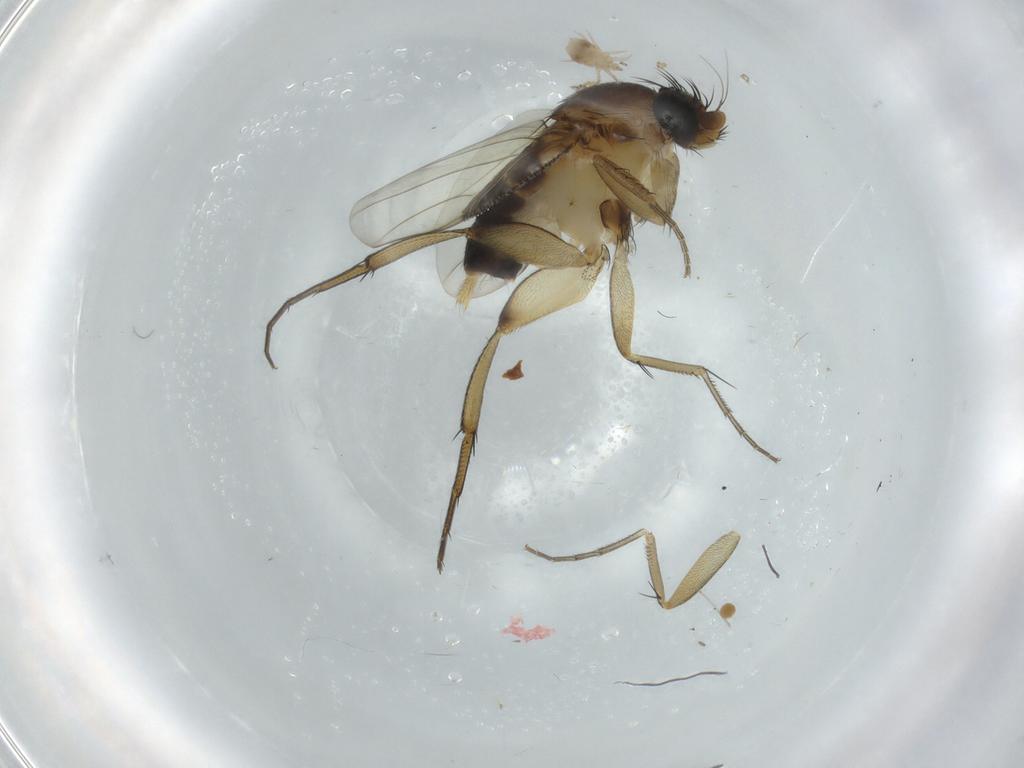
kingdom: Animalia
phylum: Arthropoda
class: Insecta
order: Diptera
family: Phoridae
